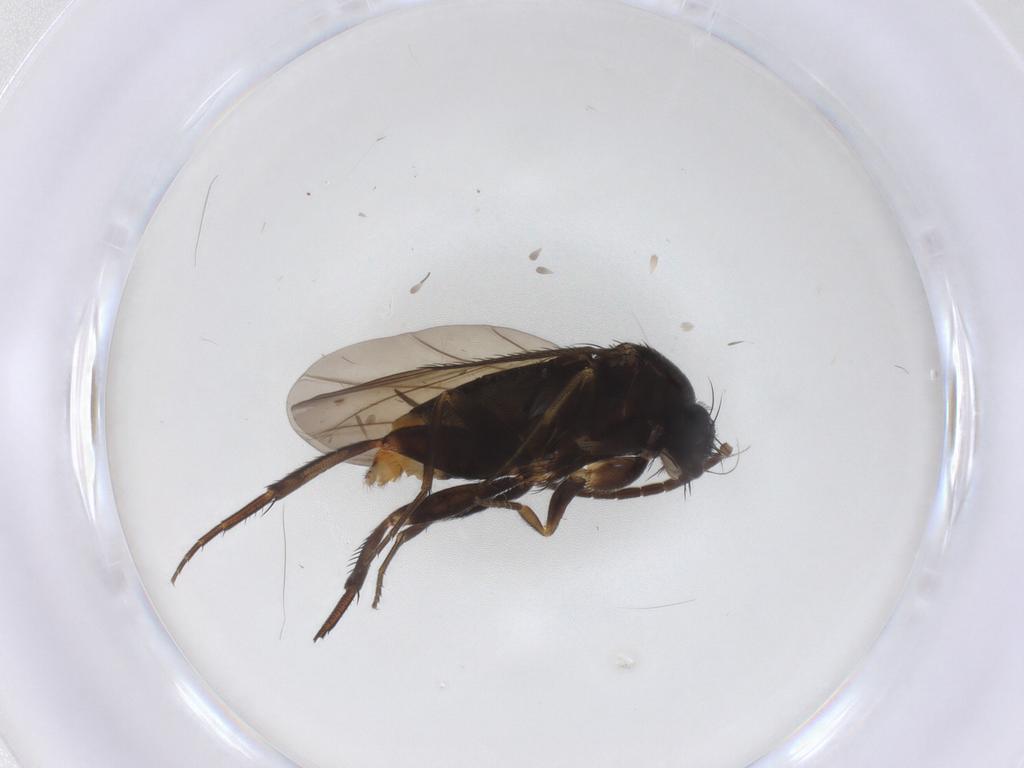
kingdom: Animalia
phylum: Arthropoda
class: Insecta
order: Diptera
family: Phoridae
